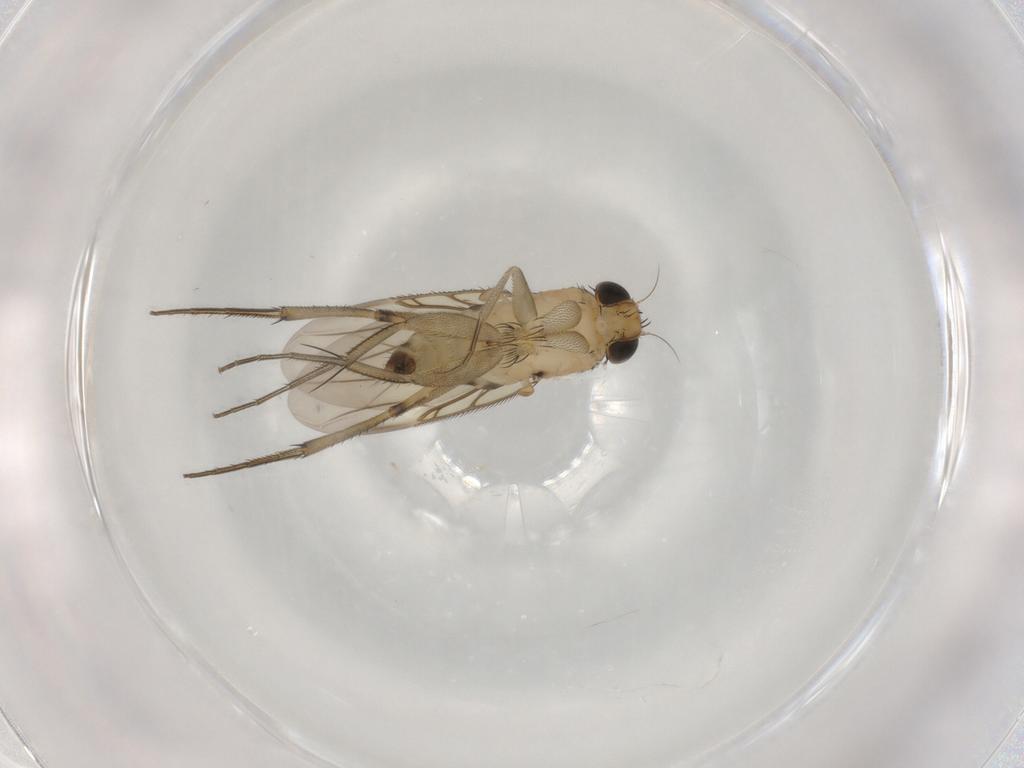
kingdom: Animalia
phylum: Arthropoda
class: Insecta
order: Diptera
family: Phoridae
